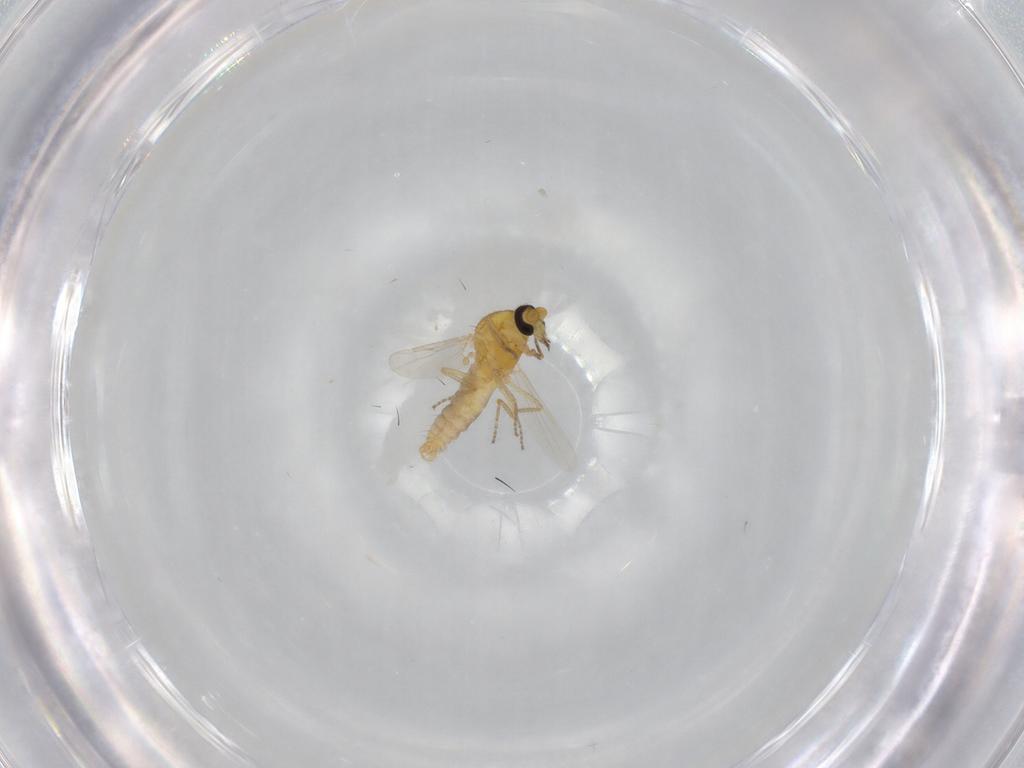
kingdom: Animalia
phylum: Arthropoda
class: Insecta
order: Diptera
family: Ceratopogonidae
